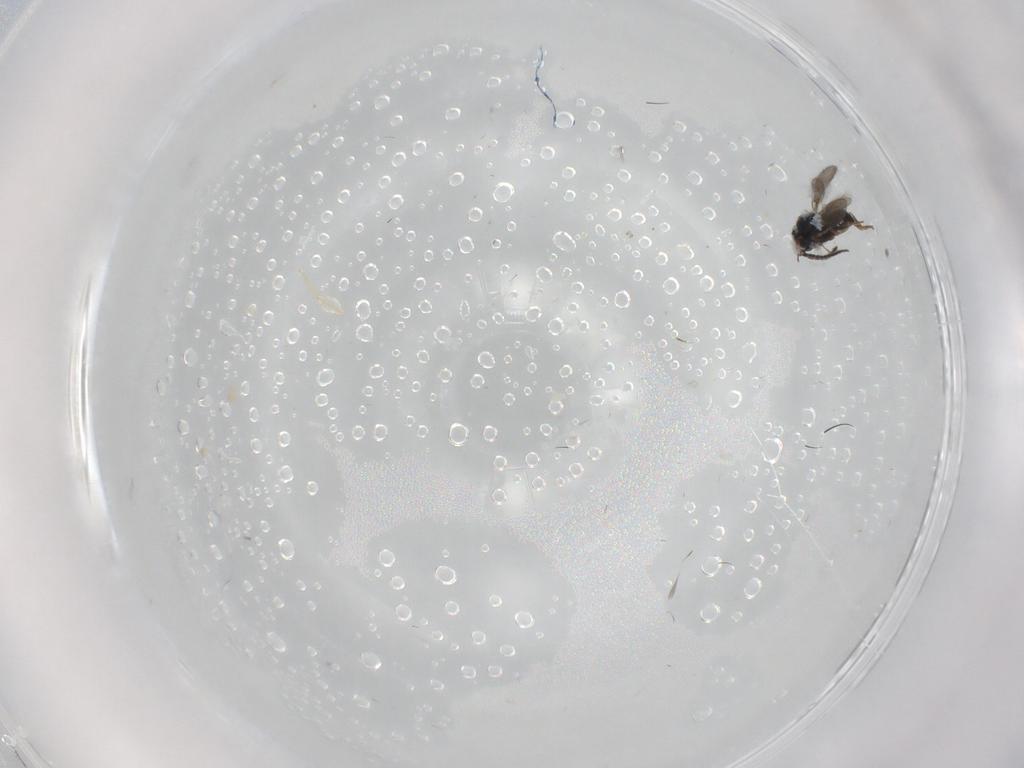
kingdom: Animalia
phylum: Arthropoda
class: Insecta
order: Hymenoptera
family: Scelionidae
